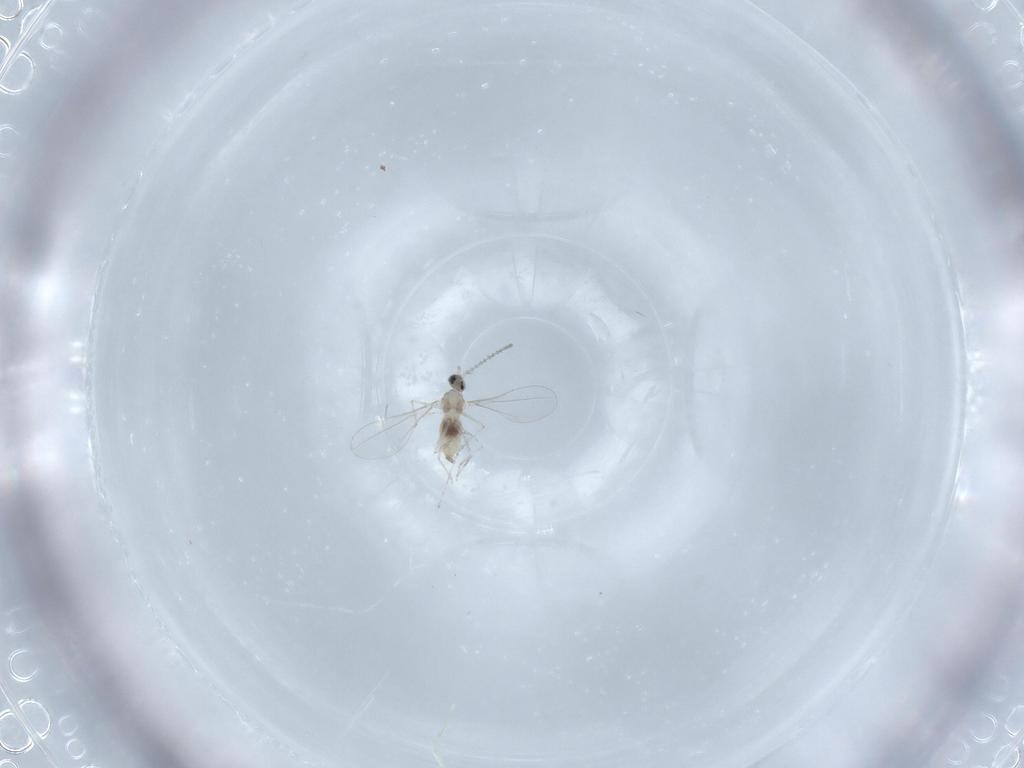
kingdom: Animalia
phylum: Arthropoda
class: Insecta
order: Diptera
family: Cecidomyiidae
